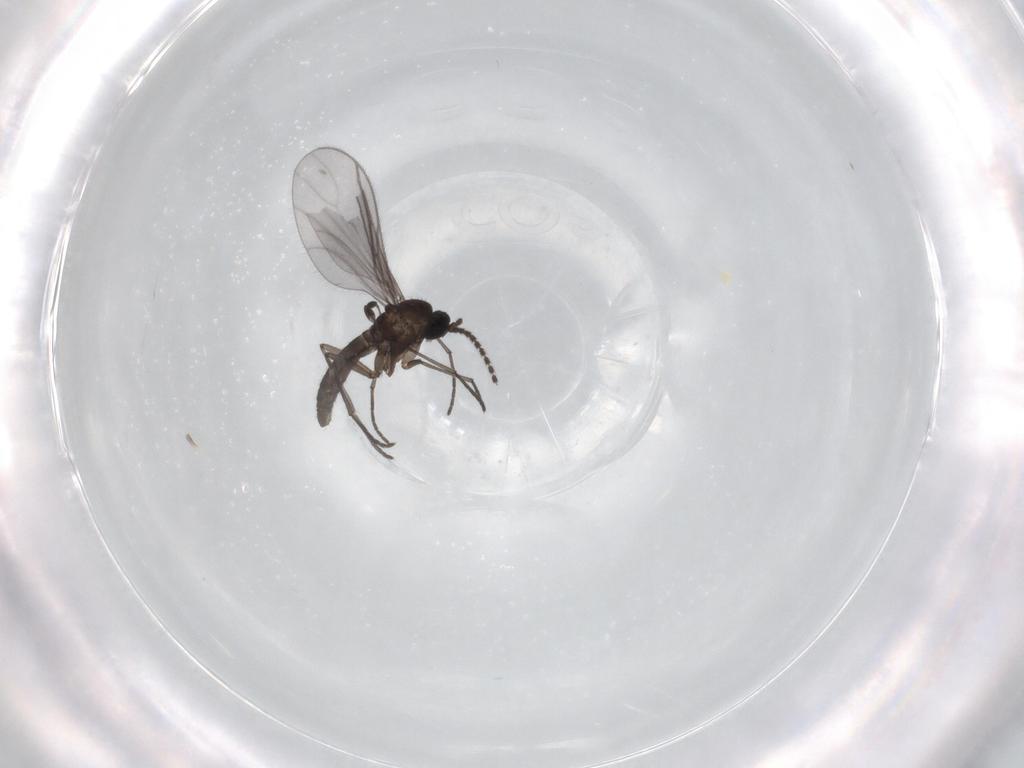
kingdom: Animalia
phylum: Arthropoda
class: Insecta
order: Diptera
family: Sciaridae
